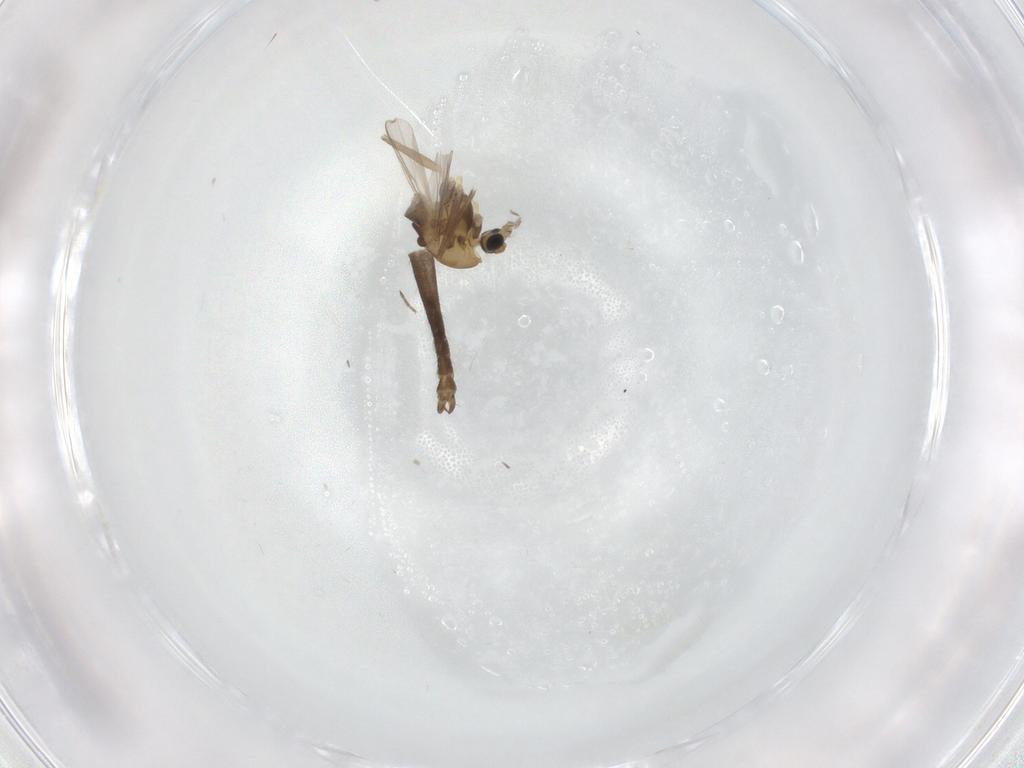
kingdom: Animalia
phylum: Arthropoda
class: Insecta
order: Diptera
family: Chironomidae
